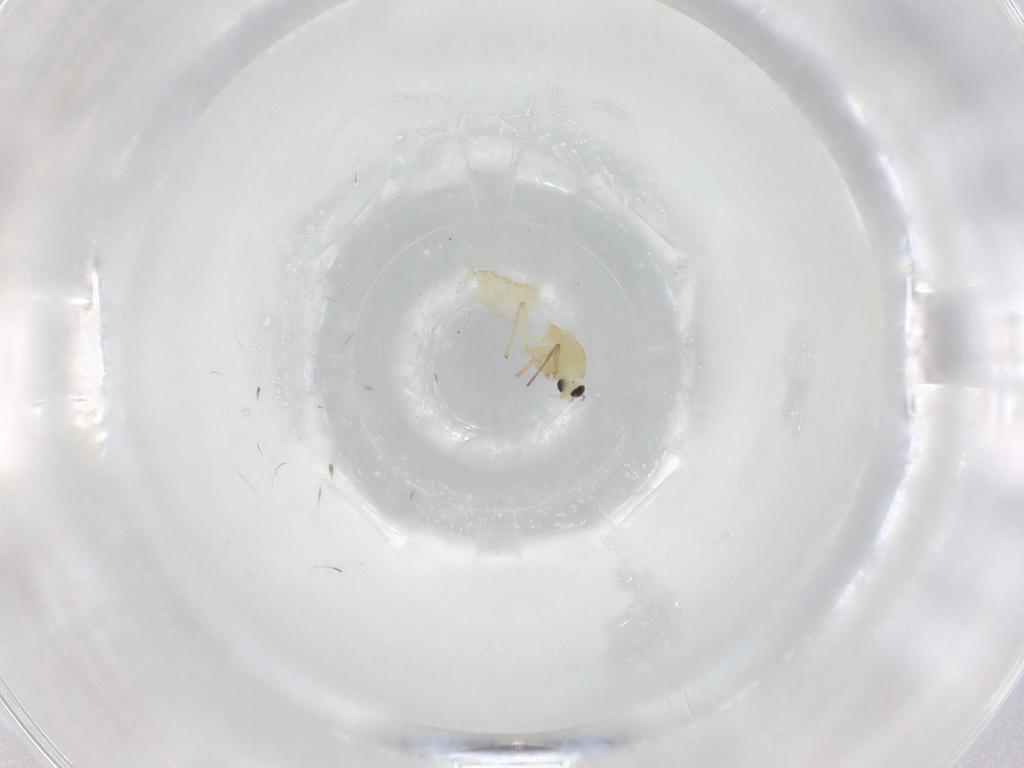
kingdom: Animalia
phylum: Arthropoda
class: Insecta
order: Diptera
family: Chironomidae
